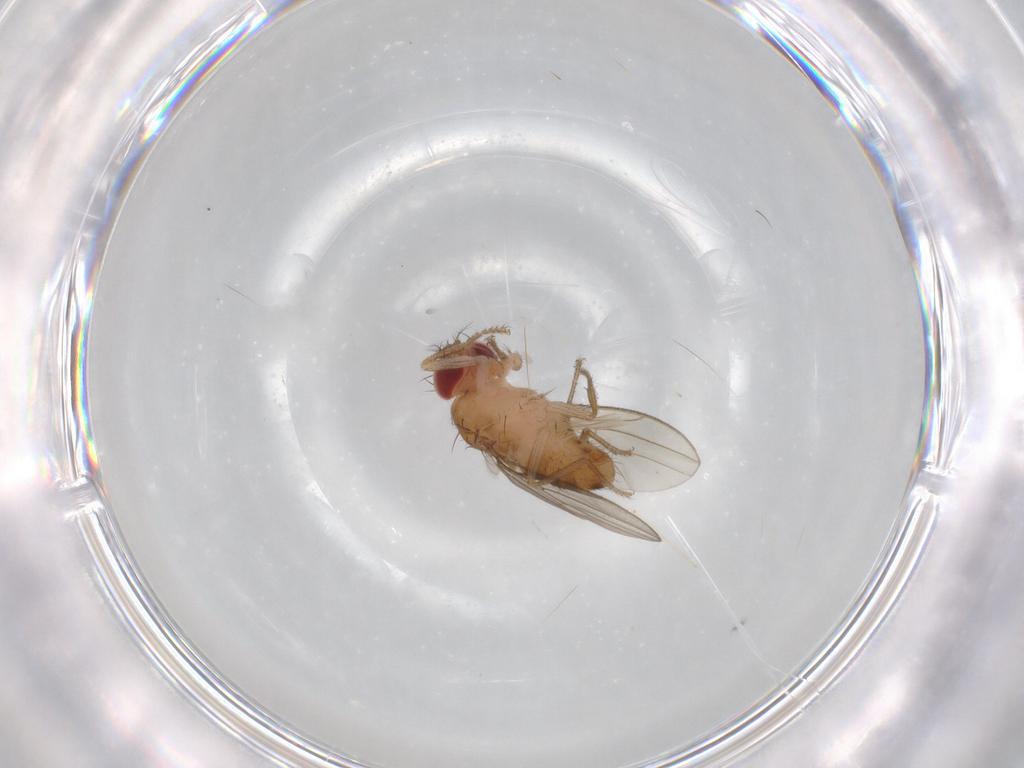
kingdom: Animalia
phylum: Arthropoda
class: Insecta
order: Diptera
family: Drosophilidae
